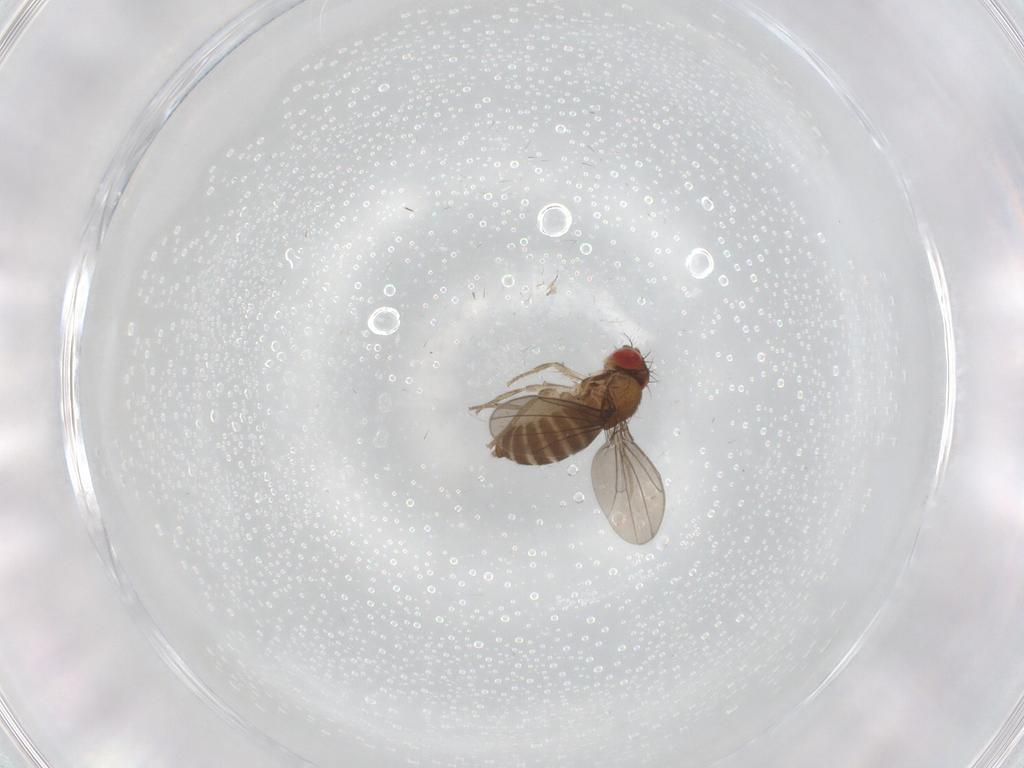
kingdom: Animalia
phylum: Arthropoda
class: Insecta
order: Diptera
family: Drosophilidae
